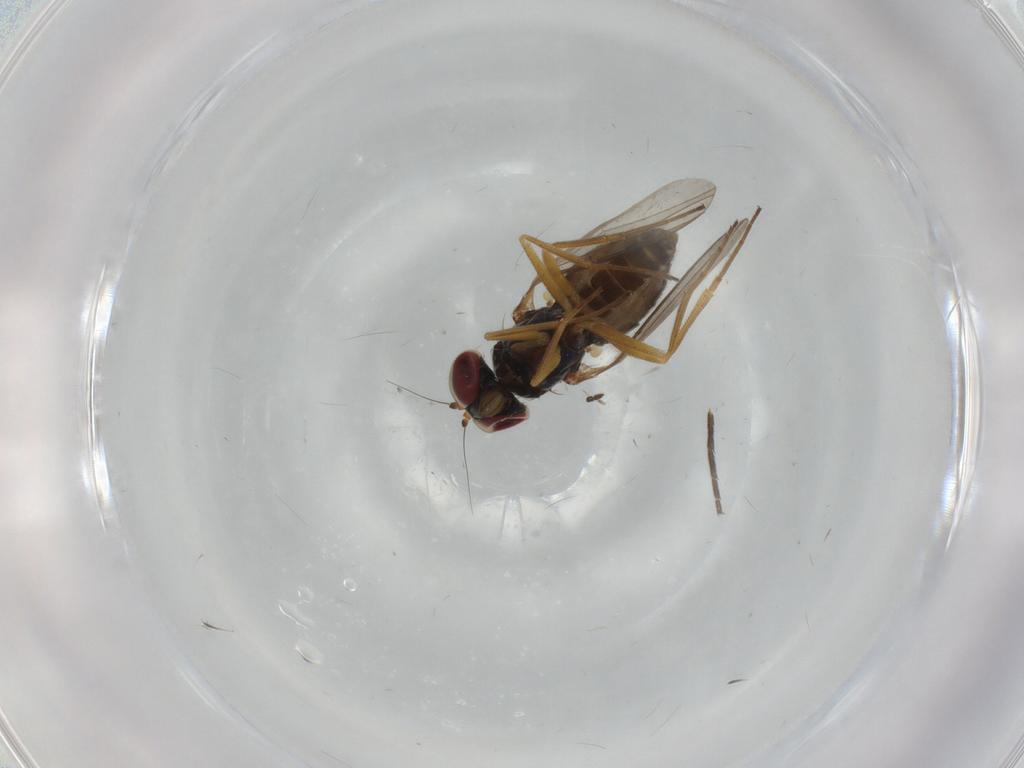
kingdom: Animalia
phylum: Arthropoda
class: Insecta
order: Diptera
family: Dolichopodidae
